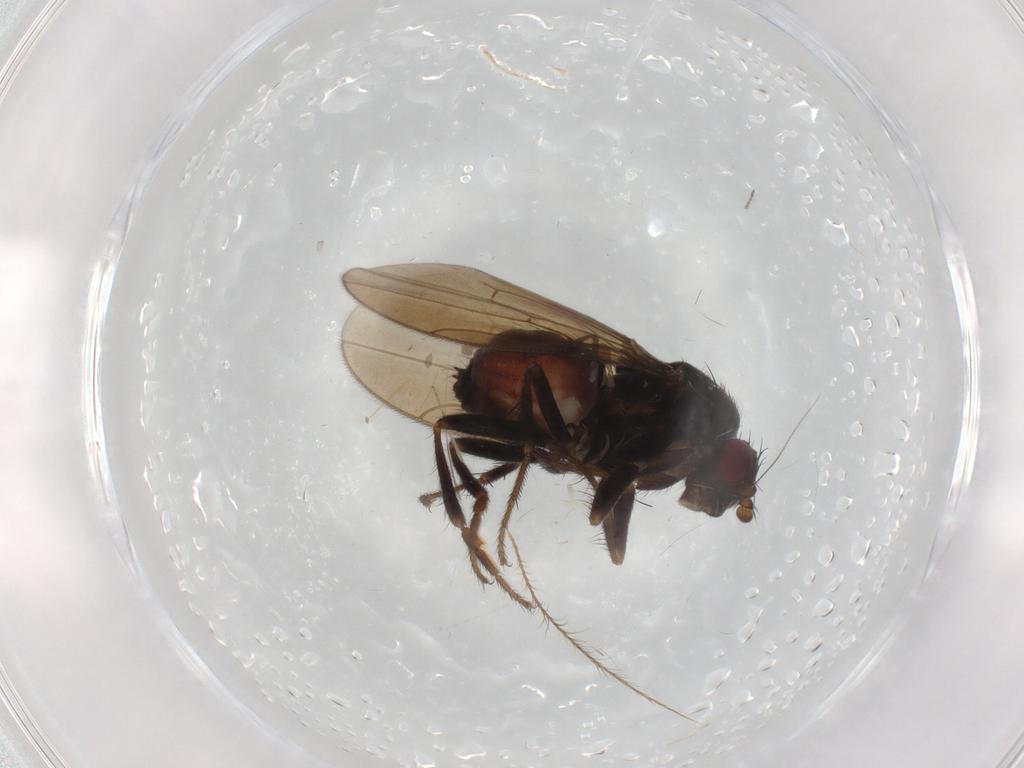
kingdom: Animalia
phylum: Arthropoda
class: Insecta
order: Diptera
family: Sphaeroceridae
